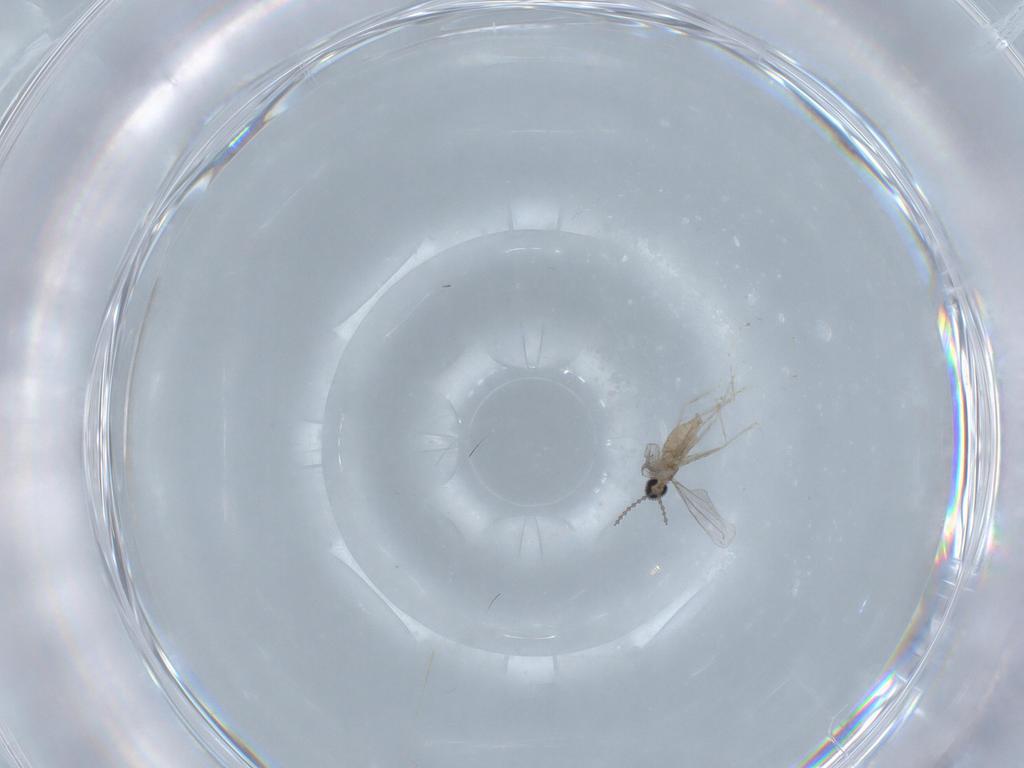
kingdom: Animalia
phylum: Arthropoda
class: Insecta
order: Diptera
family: Cecidomyiidae
